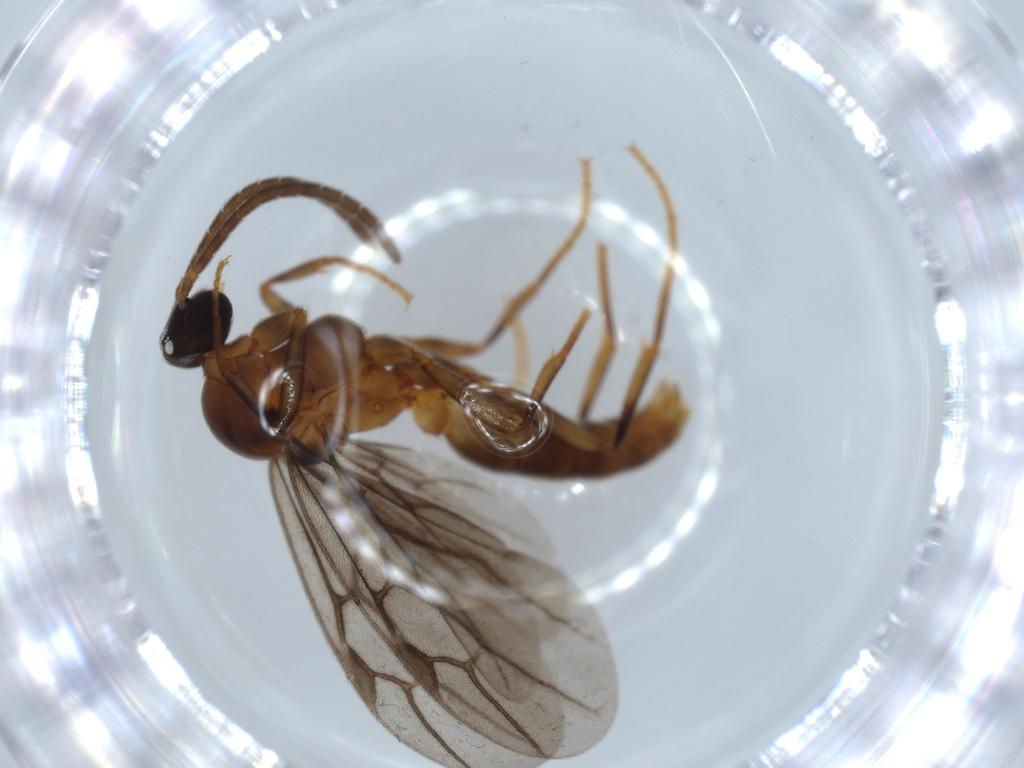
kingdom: Animalia
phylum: Arthropoda
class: Insecta
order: Hymenoptera
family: Formicidae
